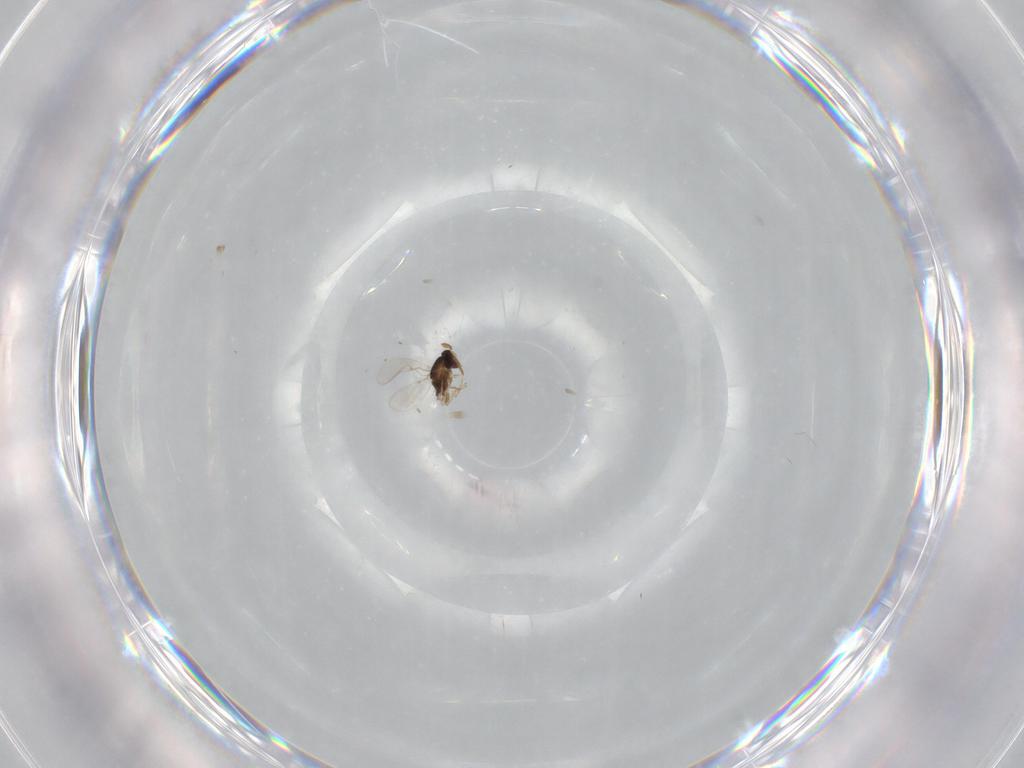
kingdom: Animalia
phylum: Arthropoda
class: Insecta
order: Hymenoptera
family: Encyrtidae
